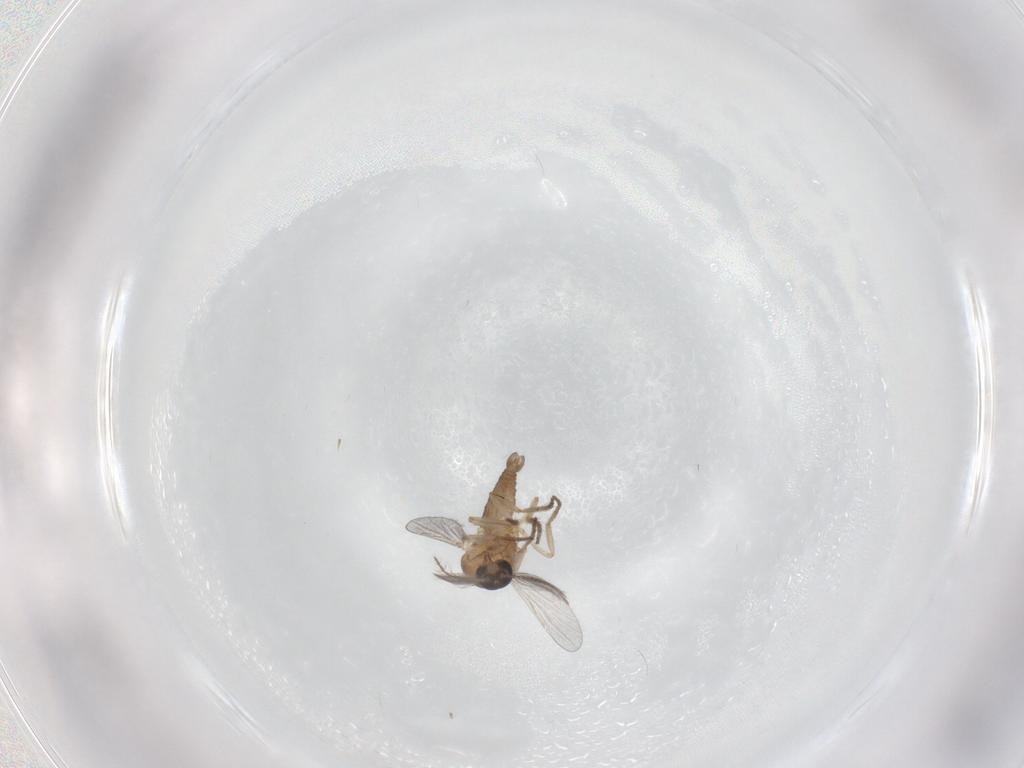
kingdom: Animalia
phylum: Arthropoda
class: Insecta
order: Diptera
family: Ceratopogonidae
